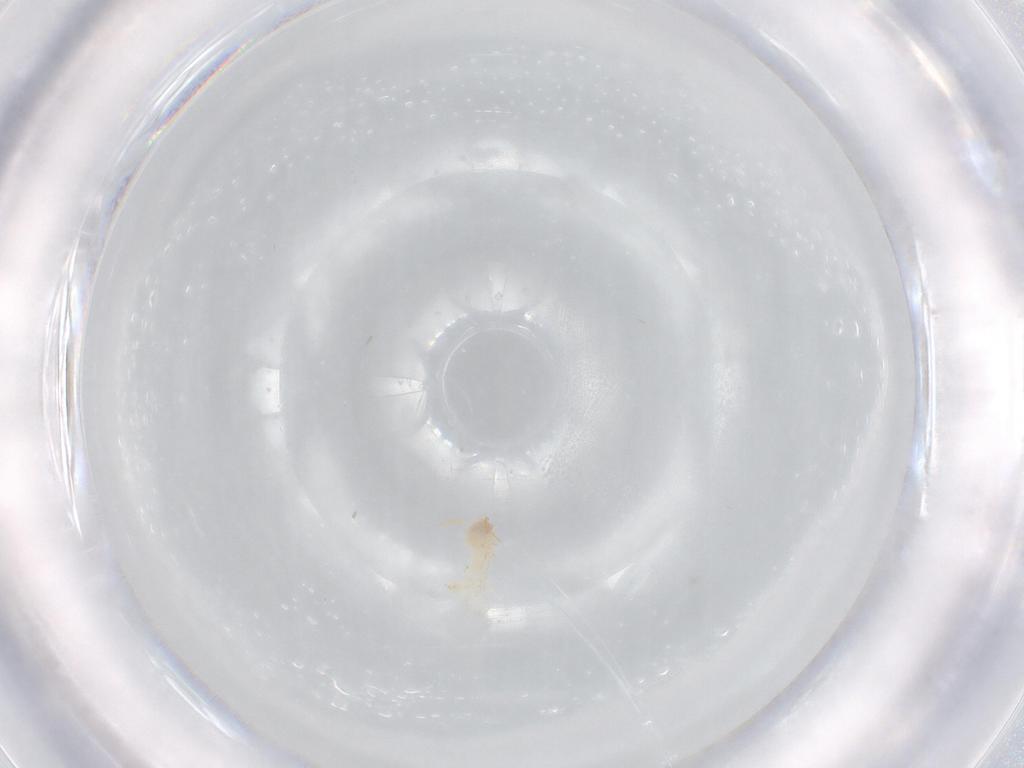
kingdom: Animalia
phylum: Arthropoda
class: Insecta
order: Hemiptera
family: Aleyrodidae
